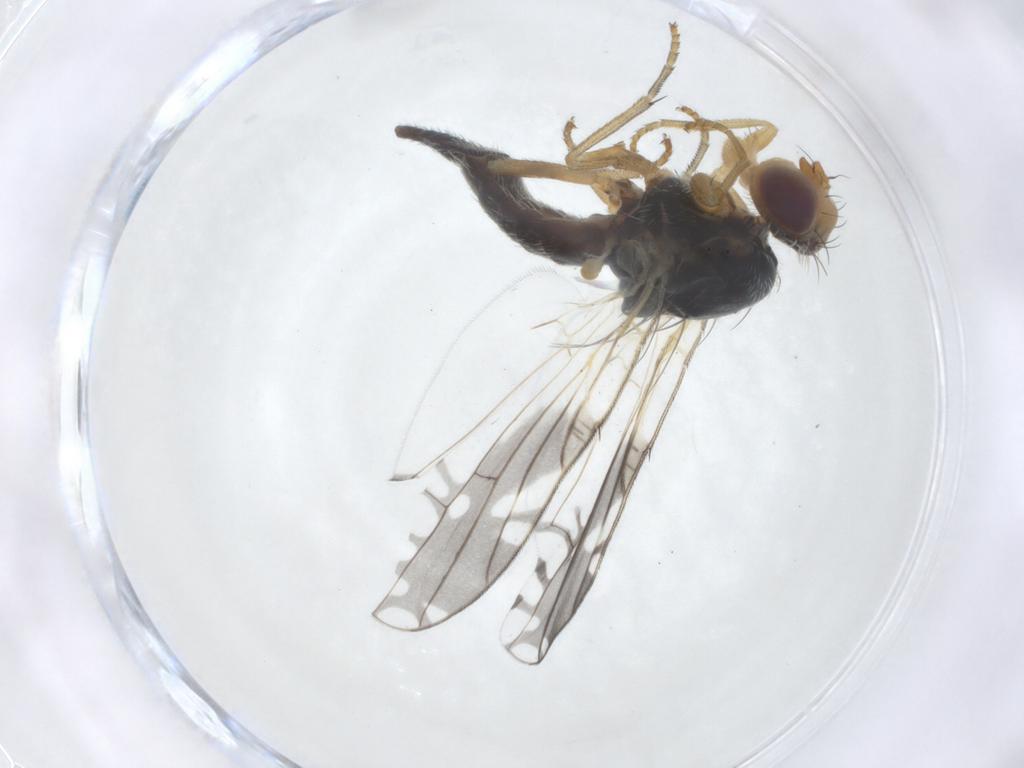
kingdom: Animalia
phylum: Arthropoda
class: Insecta
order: Diptera
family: Tephritidae
